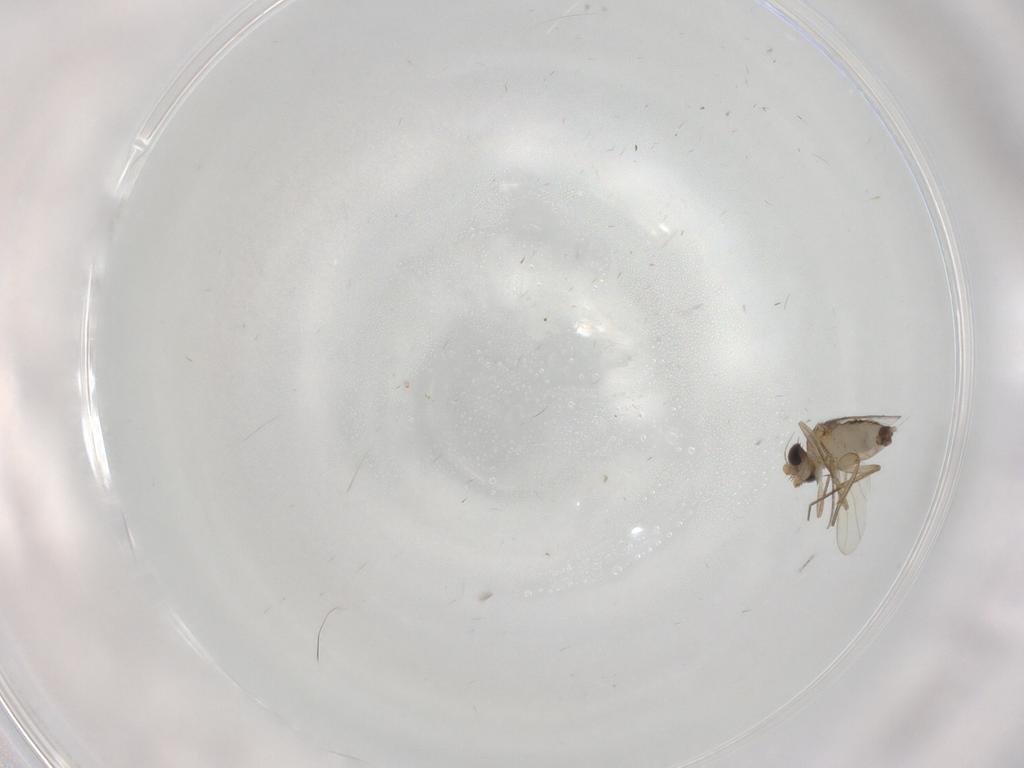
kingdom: Animalia
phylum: Arthropoda
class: Insecta
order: Diptera
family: Phoridae
